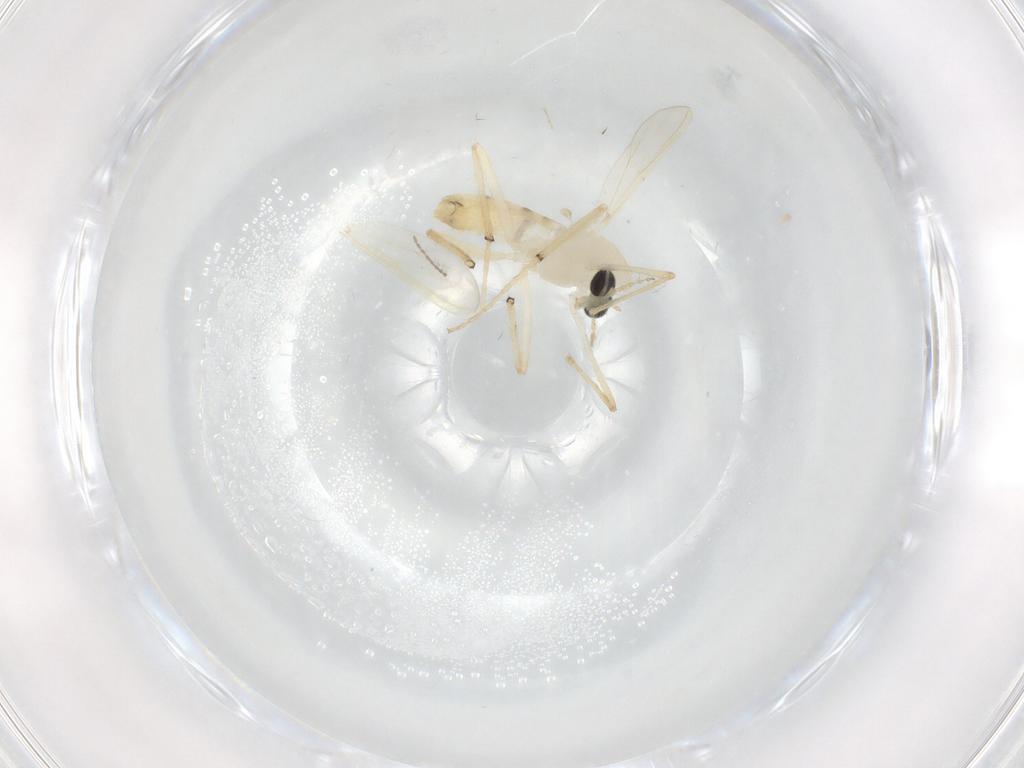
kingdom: Animalia
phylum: Arthropoda
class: Insecta
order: Diptera
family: Chironomidae
